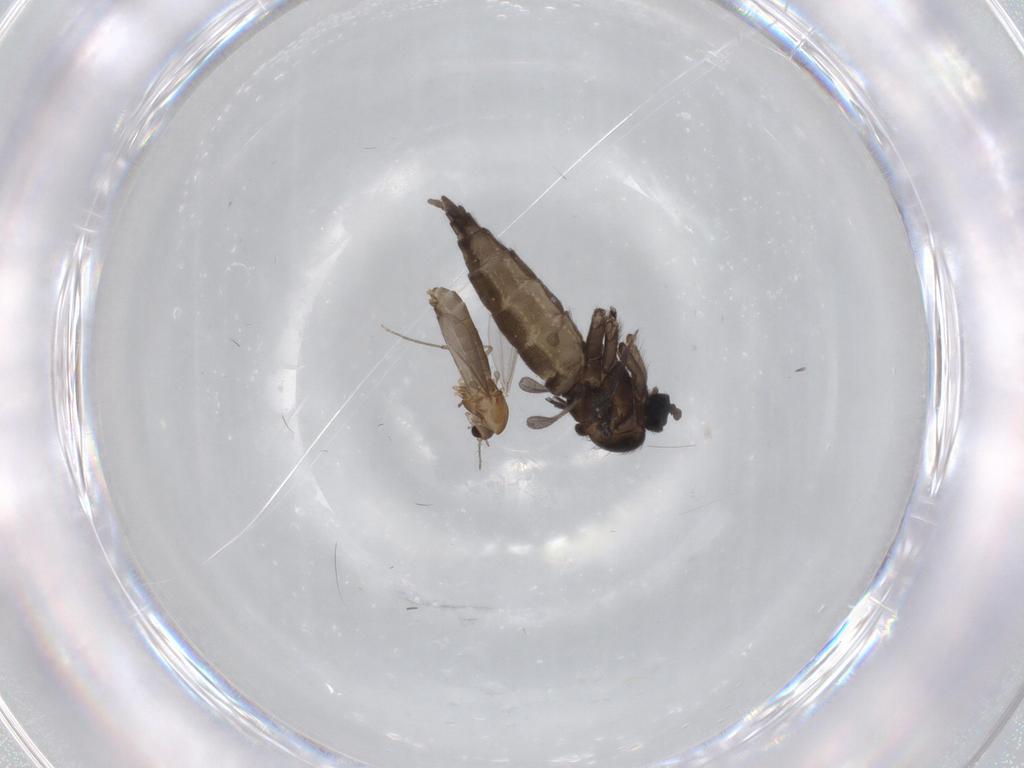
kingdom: Animalia
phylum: Arthropoda
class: Insecta
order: Diptera
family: Sciaridae
